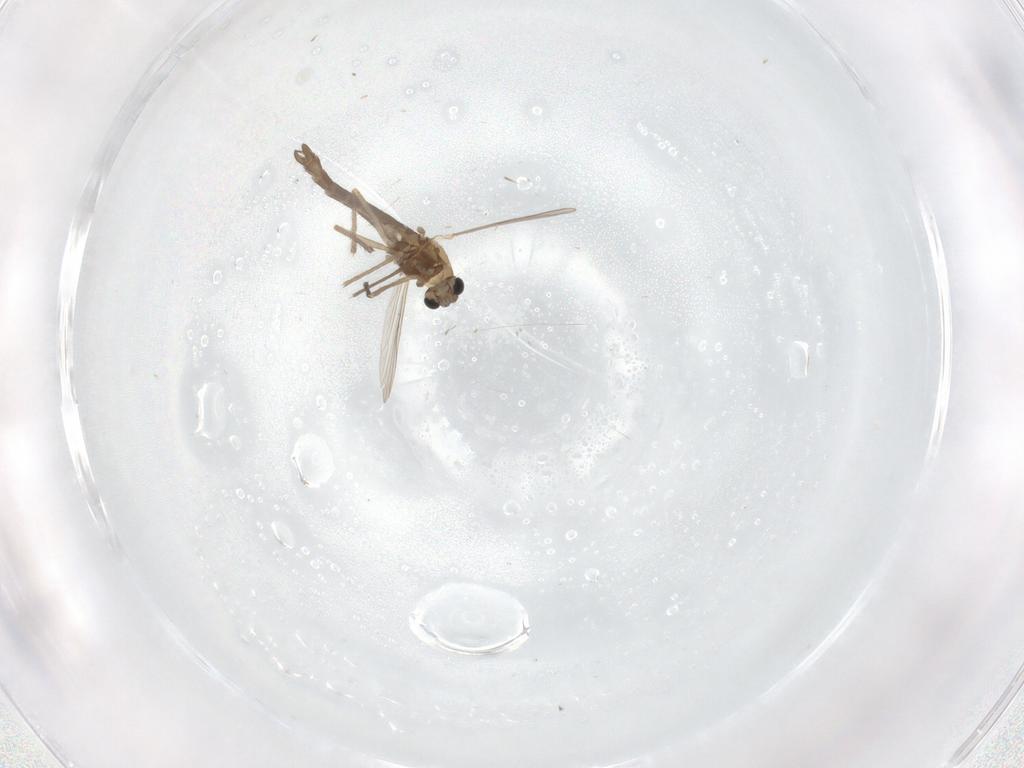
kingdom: Animalia
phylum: Arthropoda
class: Insecta
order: Diptera
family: Chironomidae
